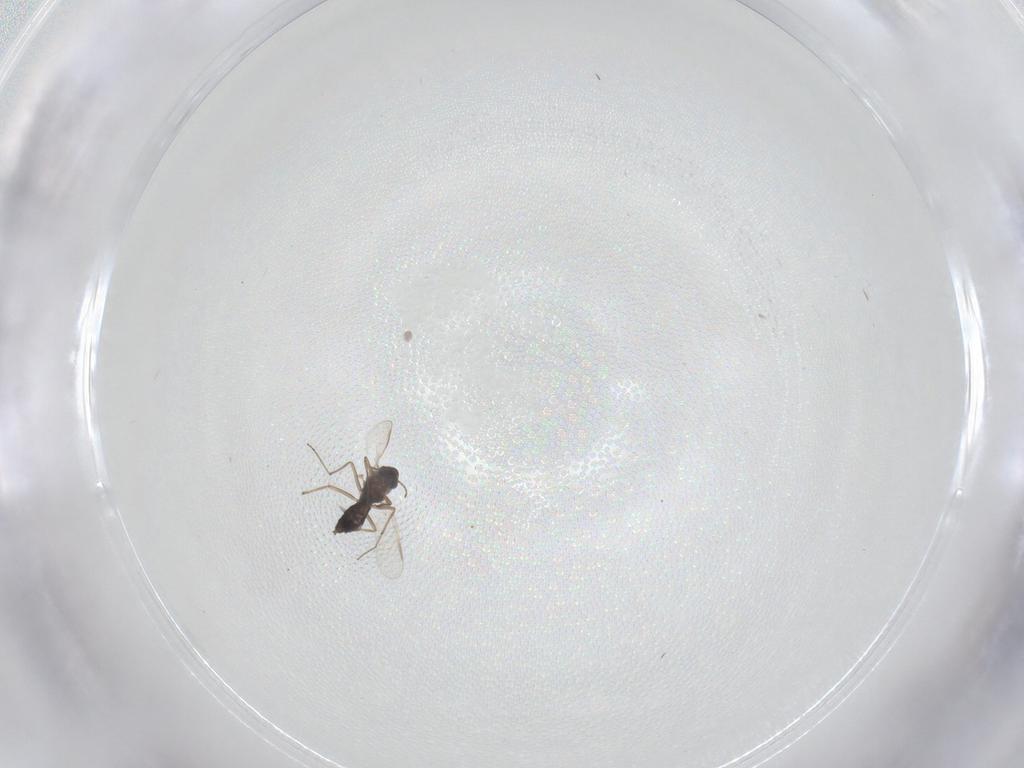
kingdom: Animalia
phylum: Arthropoda
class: Insecta
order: Diptera
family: Chironomidae
